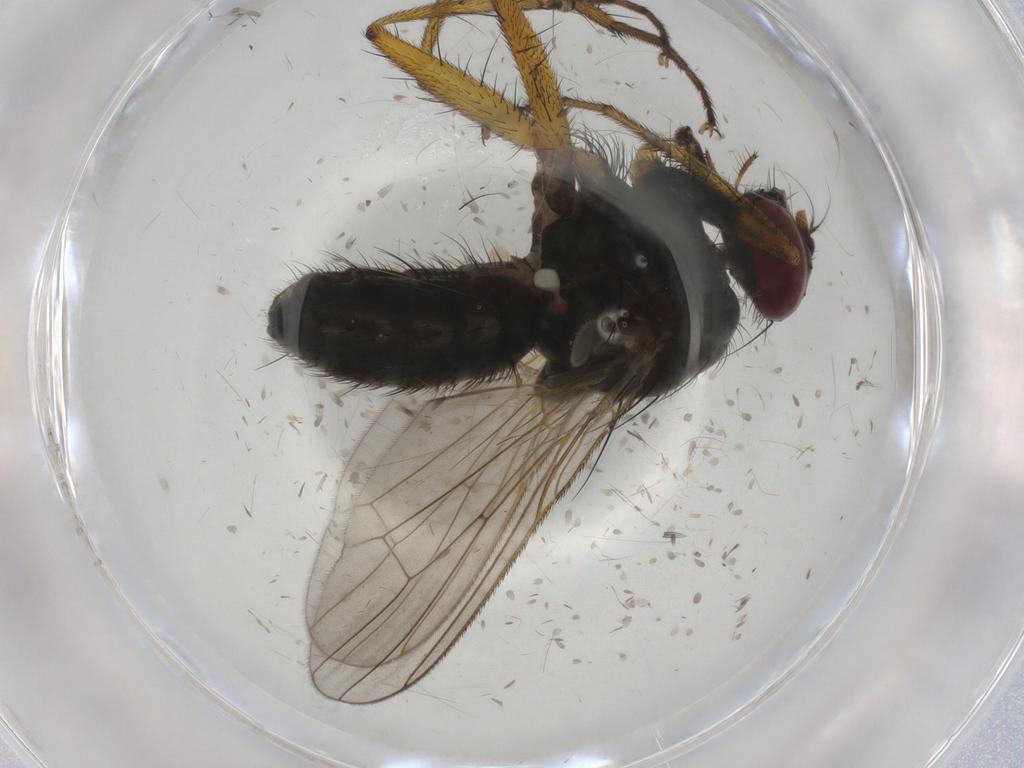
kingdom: Animalia
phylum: Arthropoda
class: Insecta
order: Diptera
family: Muscidae
